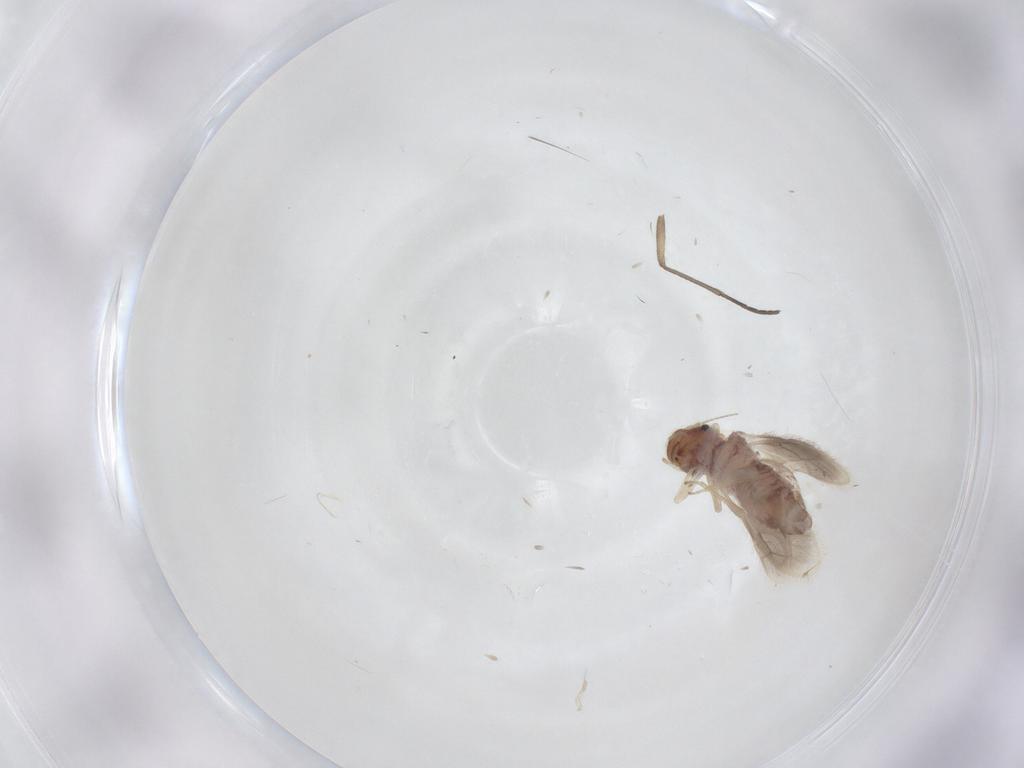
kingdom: Animalia
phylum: Arthropoda
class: Insecta
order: Psocodea
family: Archipsocidae
